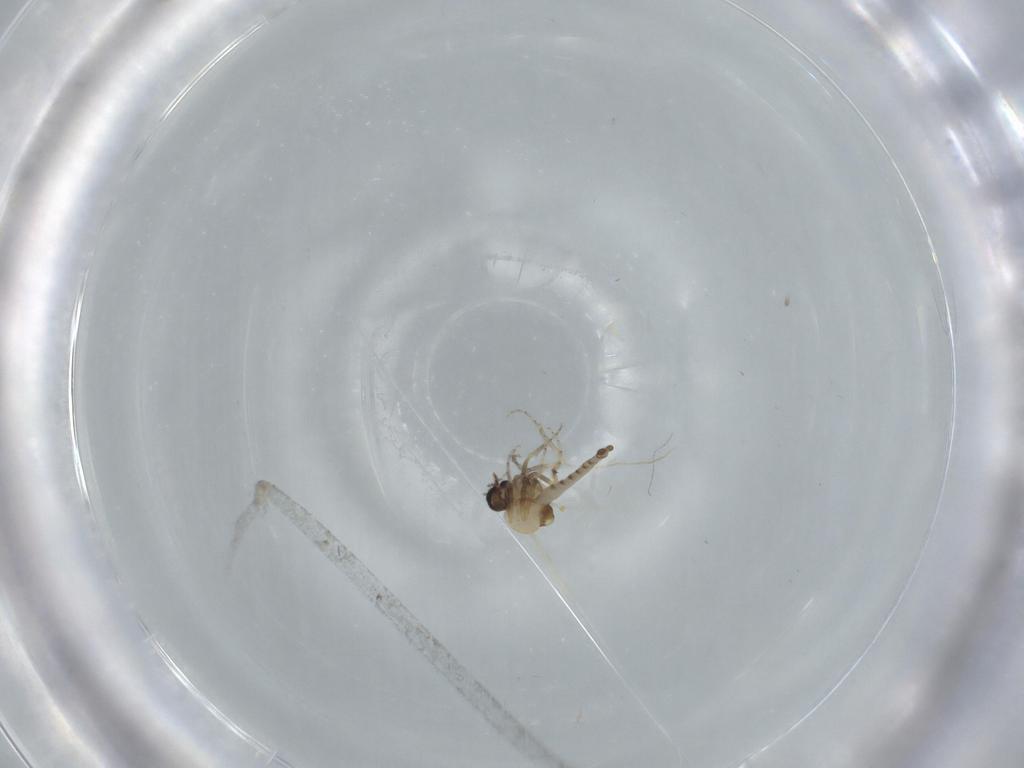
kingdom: Animalia
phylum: Arthropoda
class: Insecta
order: Diptera
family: Ceratopogonidae
